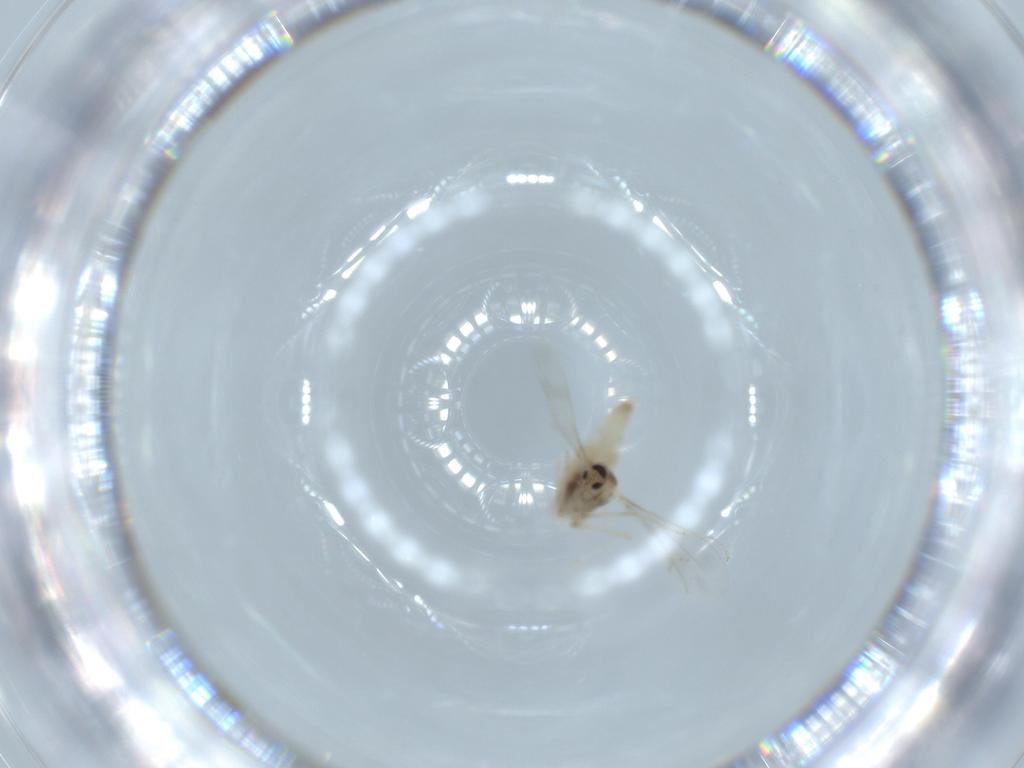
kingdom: Animalia
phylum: Arthropoda
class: Insecta
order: Diptera
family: Cecidomyiidae
